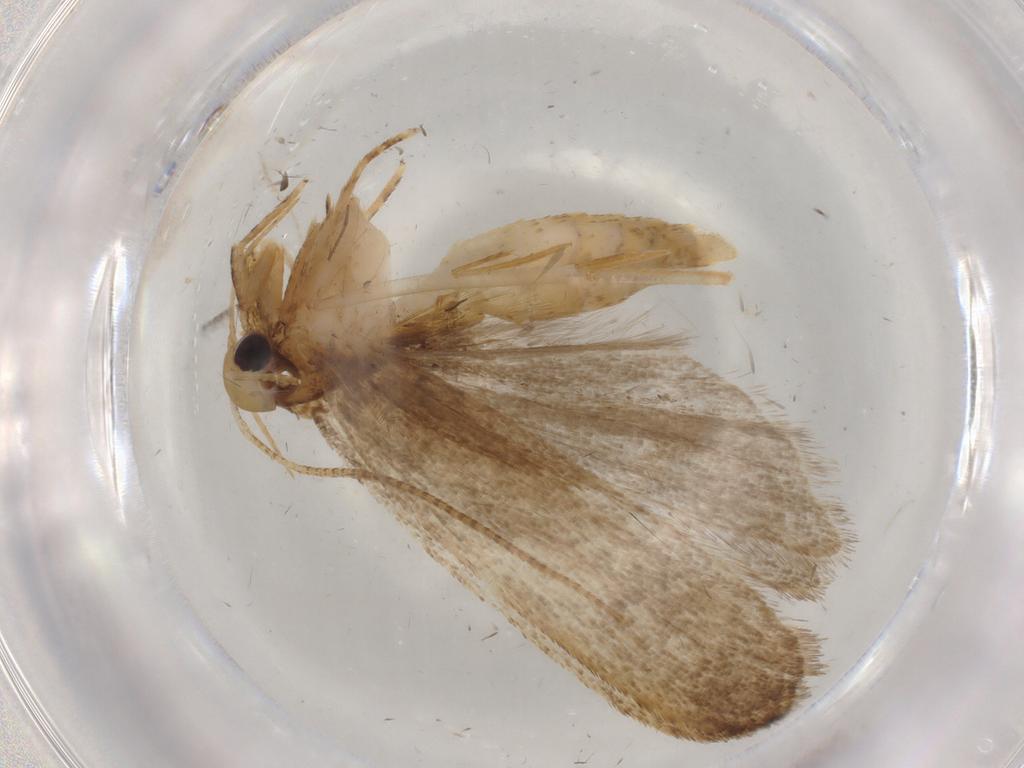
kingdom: Animalia
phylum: Arthropoda
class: Insecta
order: Lepidoptera
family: Autostichidae
